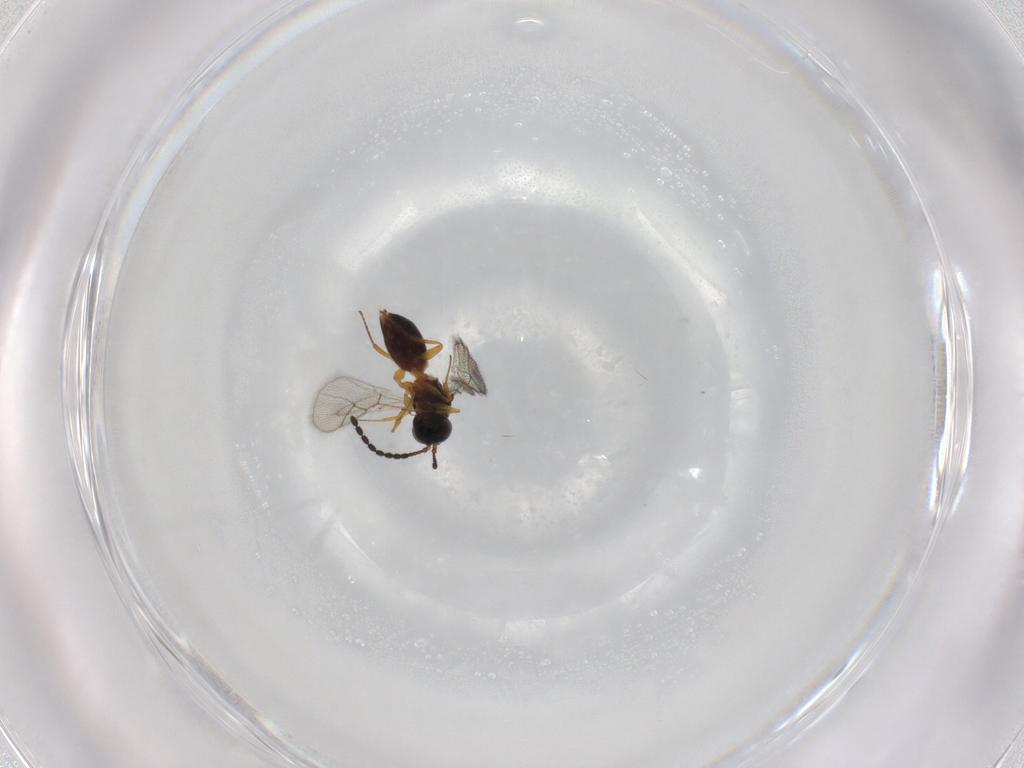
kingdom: Animalia
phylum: Arthropoda
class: Insecta
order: Hymenoptera
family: Figitidae
